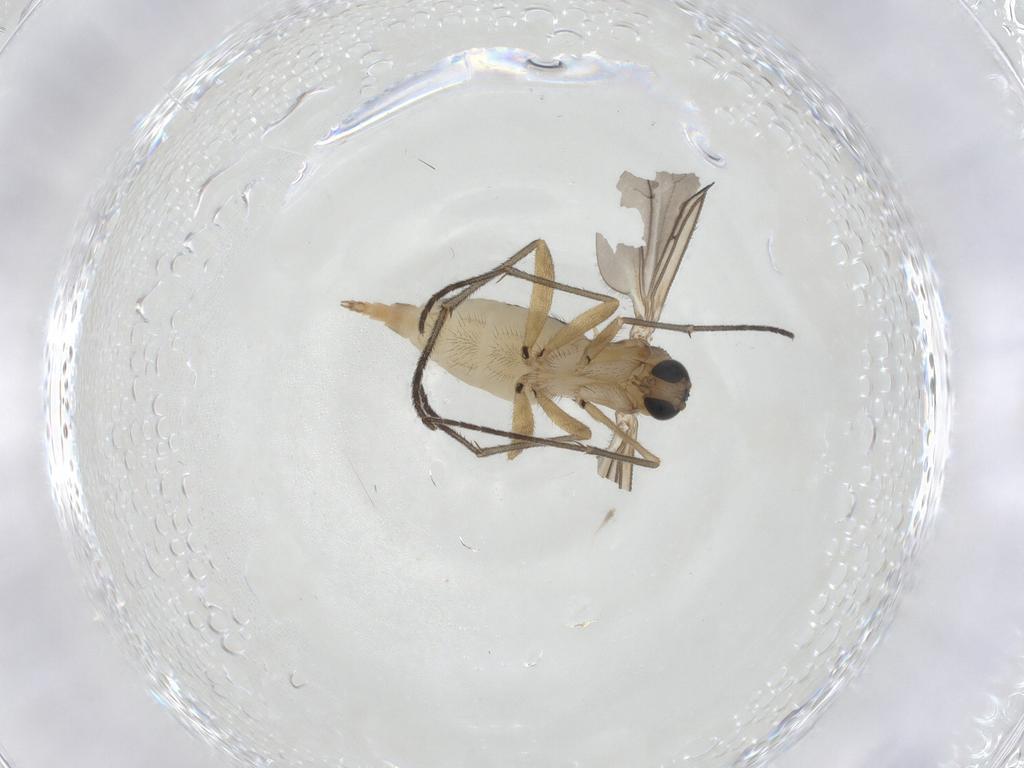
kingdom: Animalia
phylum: Arthropoda
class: Insecta
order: Diptera
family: Sciaridae
